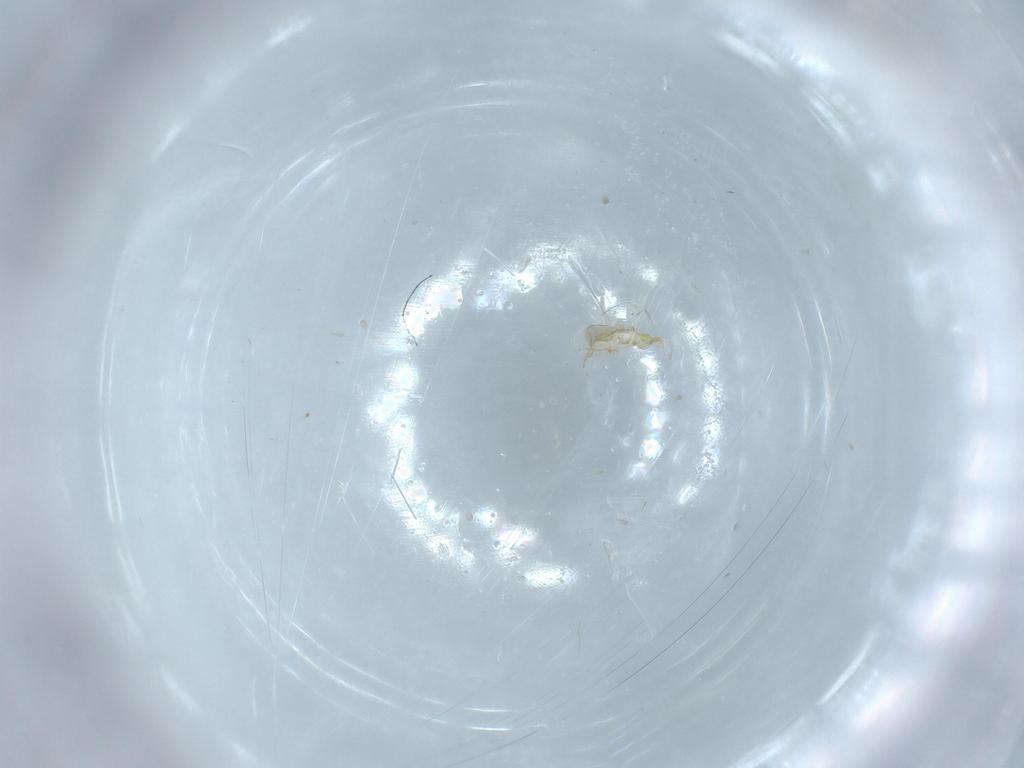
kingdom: Animalia
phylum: Arthropoda
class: Insecta
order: Hymenoptera
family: Aphelinidae
